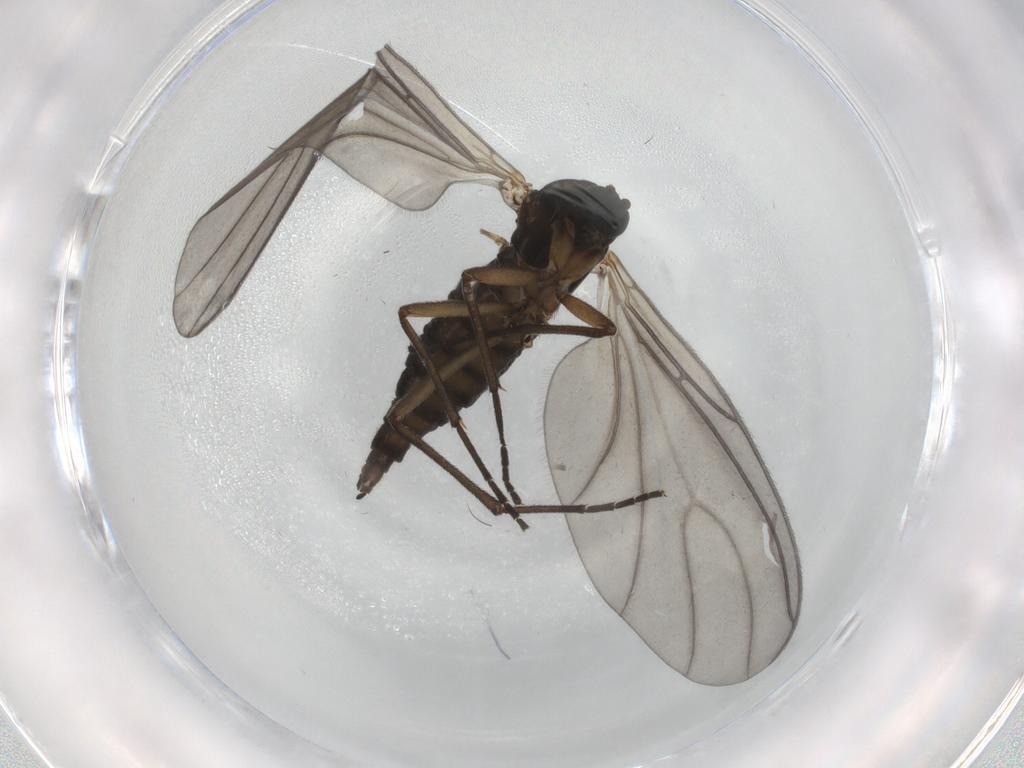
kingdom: Animalia
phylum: Arthropoda
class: Insecta
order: Diptera
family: Sciaridae
